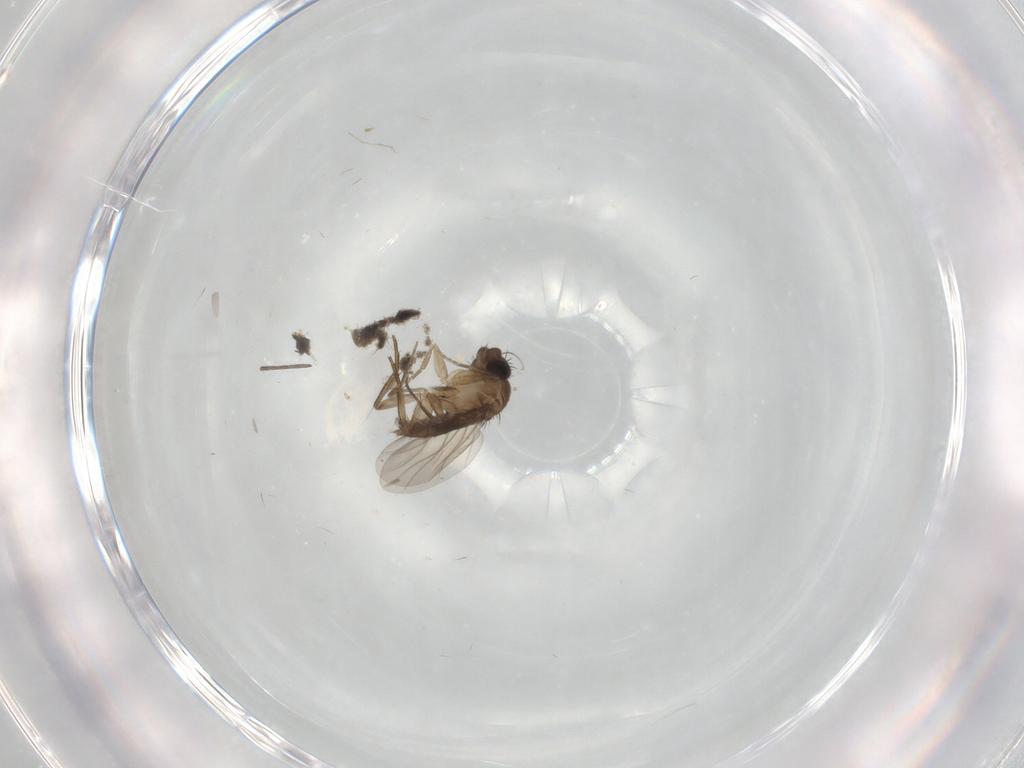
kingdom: Animalia
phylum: Arthropoda
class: Insecta
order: Diptera
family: Phoridae
